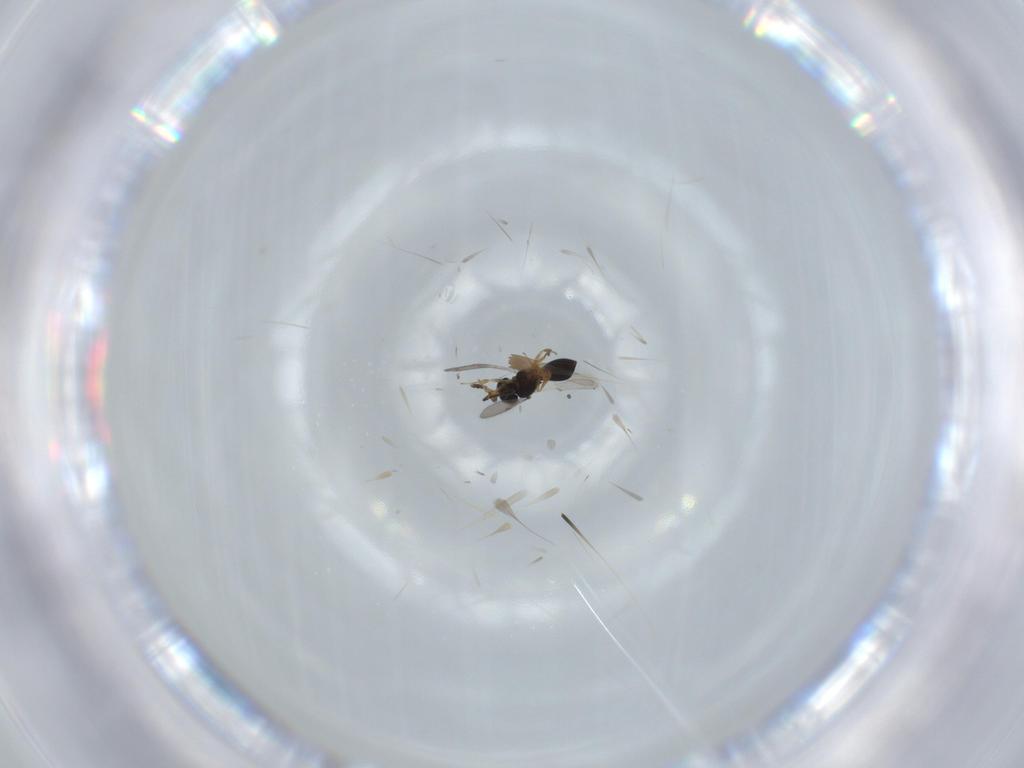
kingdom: Animalia
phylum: Arthropoda
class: Insecta
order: Hymenoptera
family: Scelionidae
